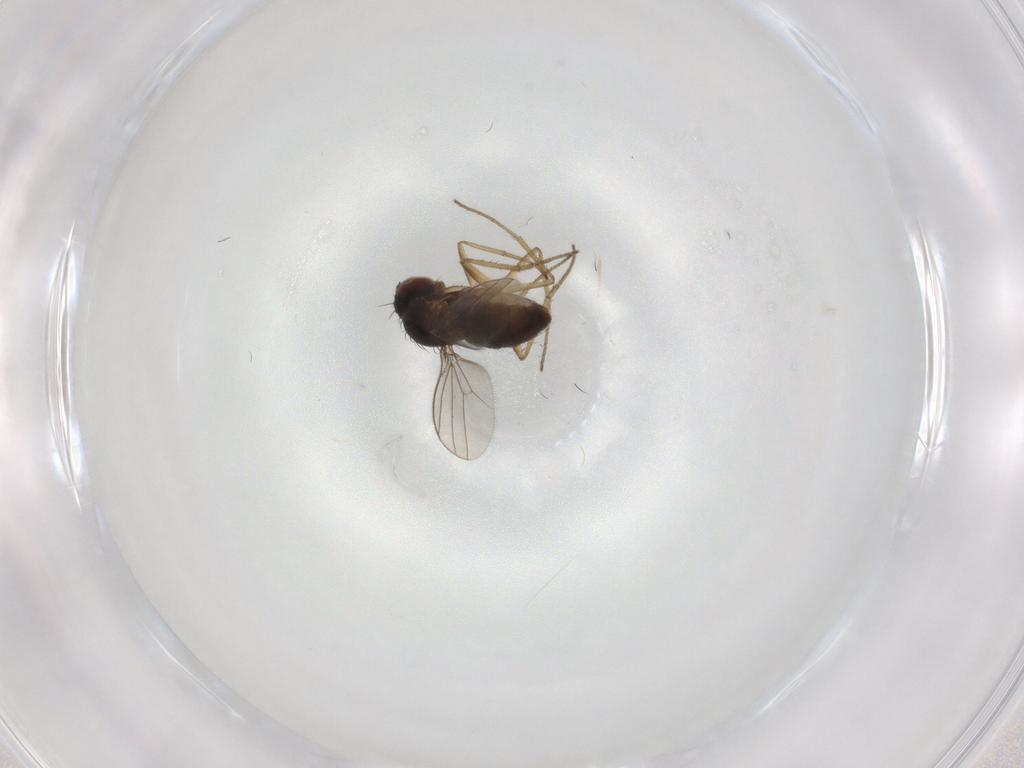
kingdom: Animalia
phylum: Arthropoda
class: Insecta
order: Diptera
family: Dolichopodidae
